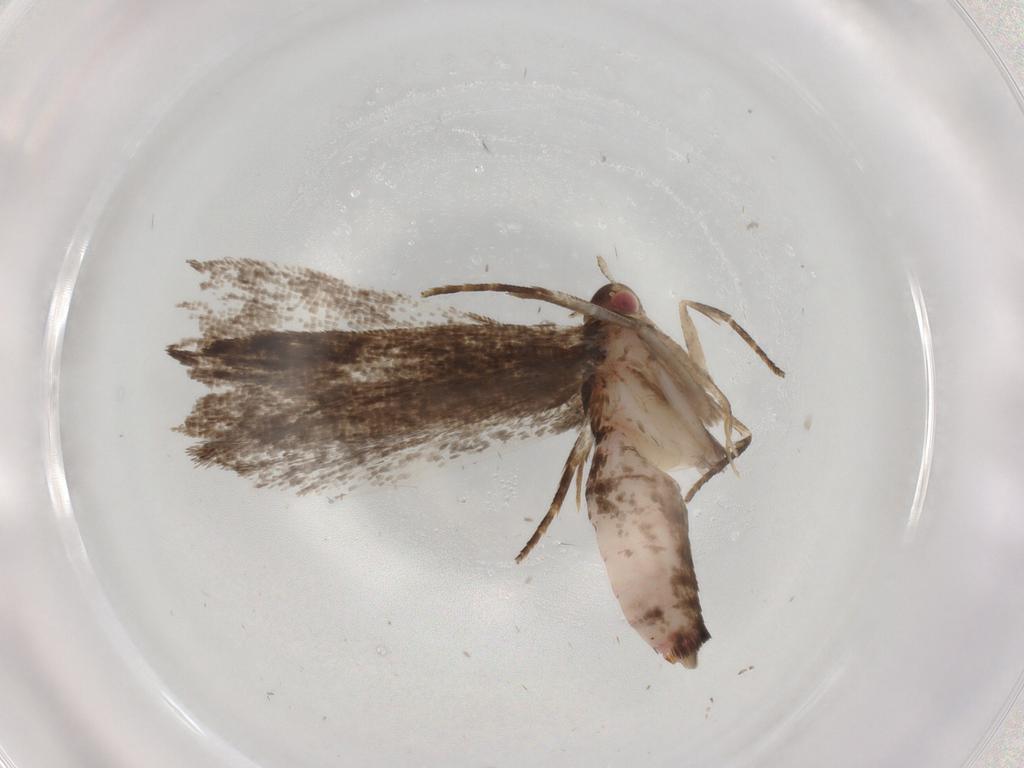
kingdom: Animalia
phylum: Arthropoda
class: Insecta
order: Lepidoptera
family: Gelechiidae
